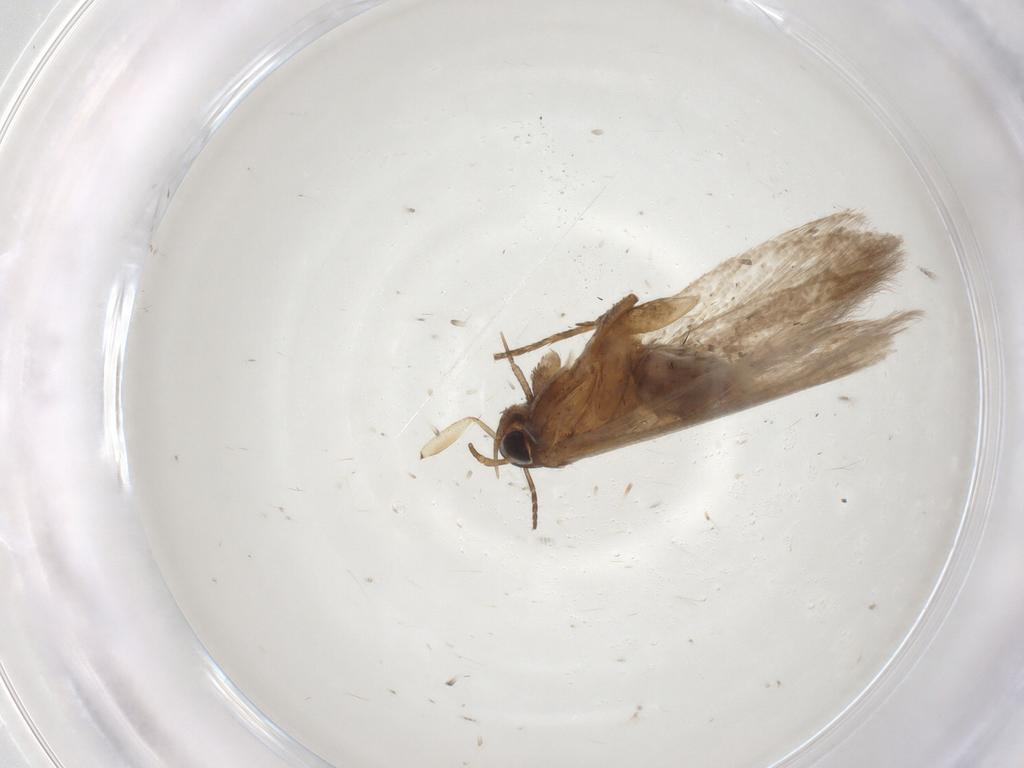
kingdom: Animalia
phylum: Arthropoda
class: Insecta
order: Lepidoptera
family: Gelechiidae
